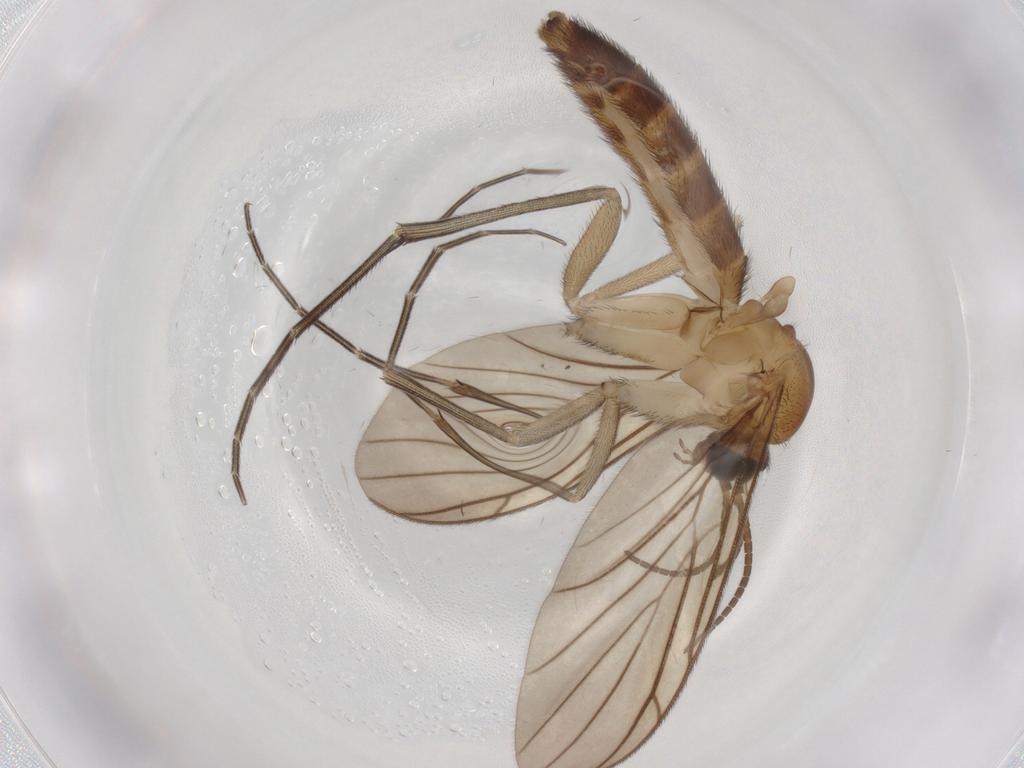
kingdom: Animalia
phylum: Arthropoda
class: Insecta
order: Diptera
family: Keroplatidae
